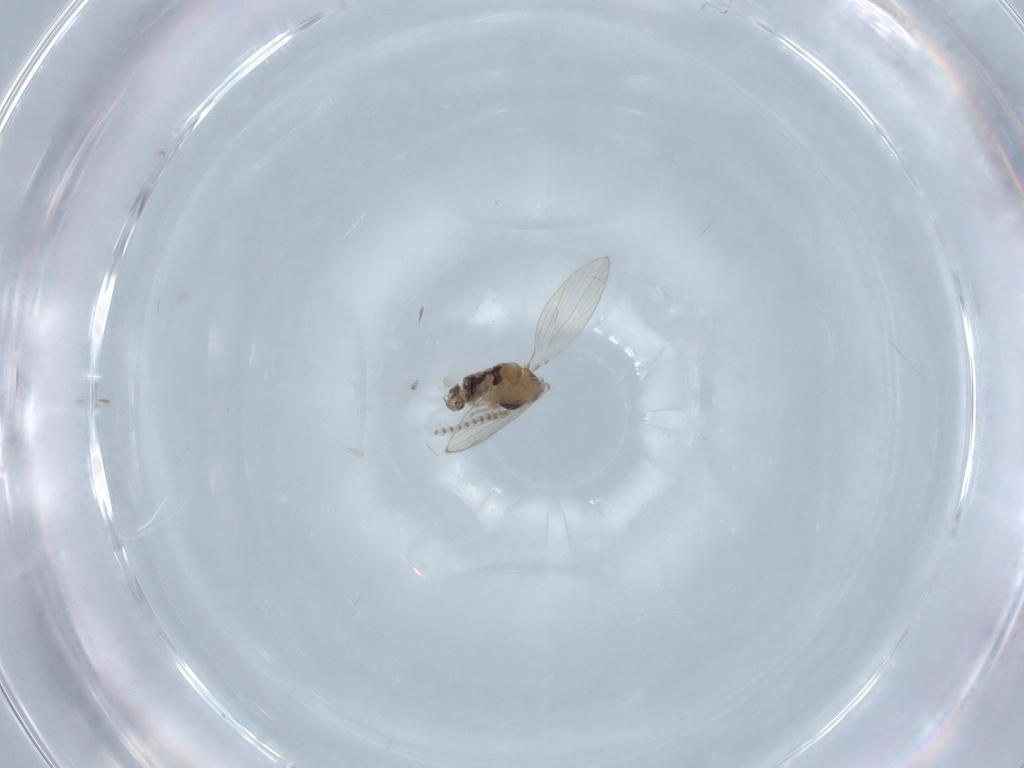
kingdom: Animalia
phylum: Arthropoda
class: Insecta
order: Diptera
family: Psychodidae
